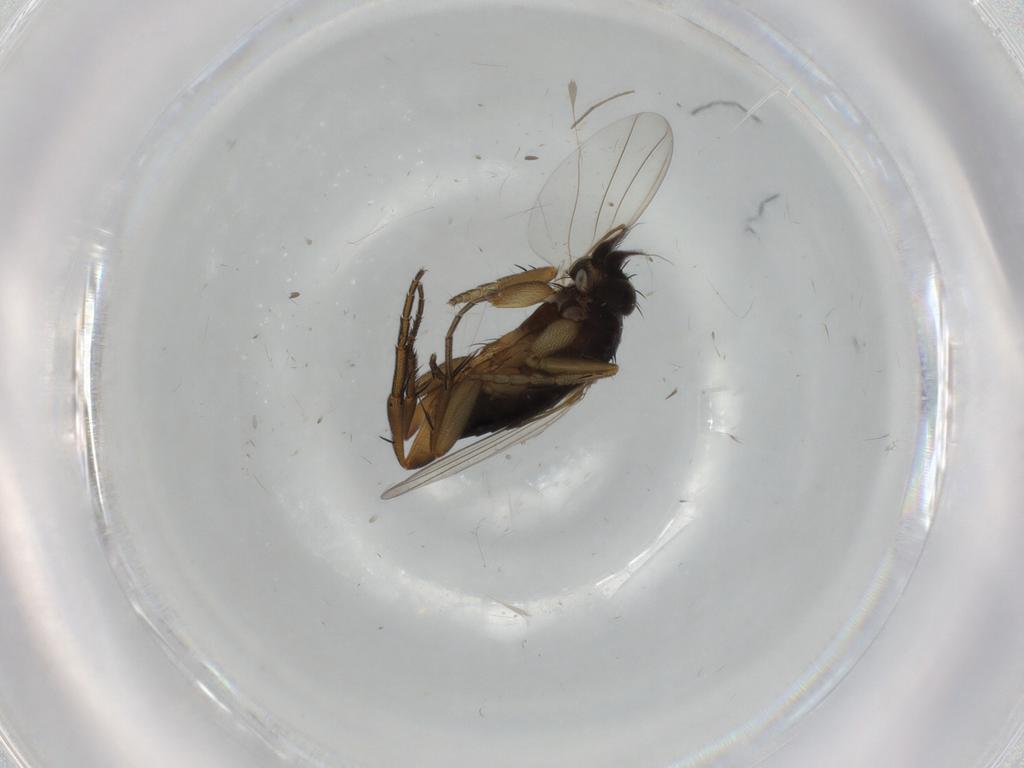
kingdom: Animalia
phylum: Arthropoda
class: Insecta
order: Diptera
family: Phoridae
